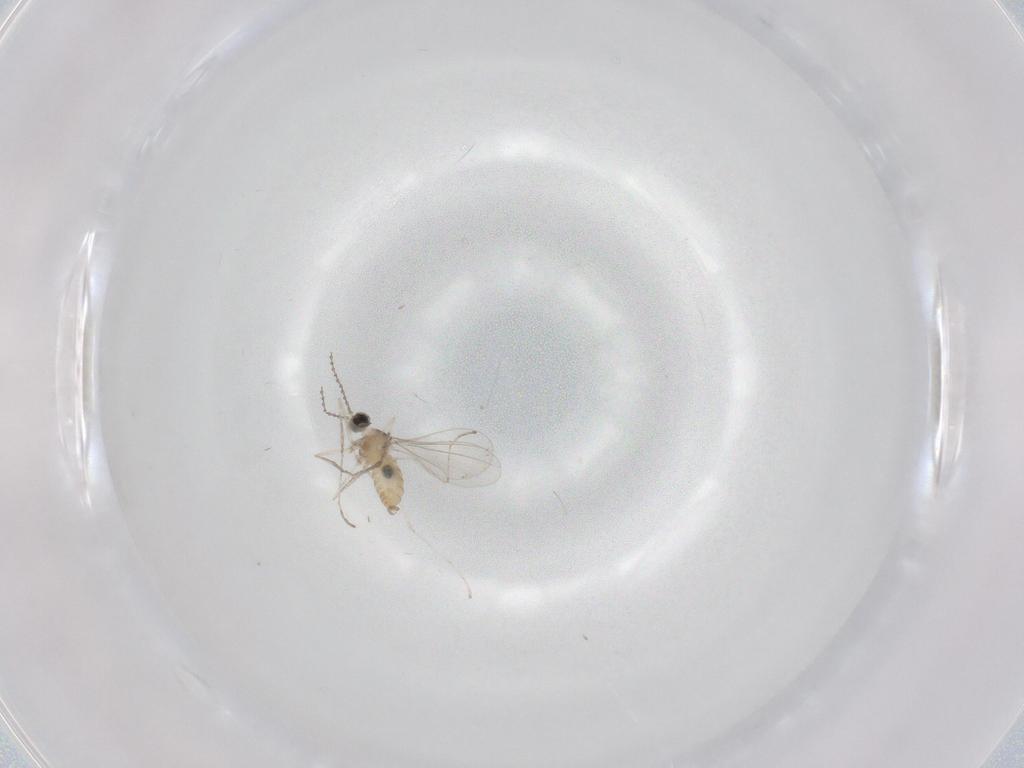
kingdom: Animalia
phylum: Arthropoda
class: Insecta
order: Diptera
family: Cecidomyiidae
